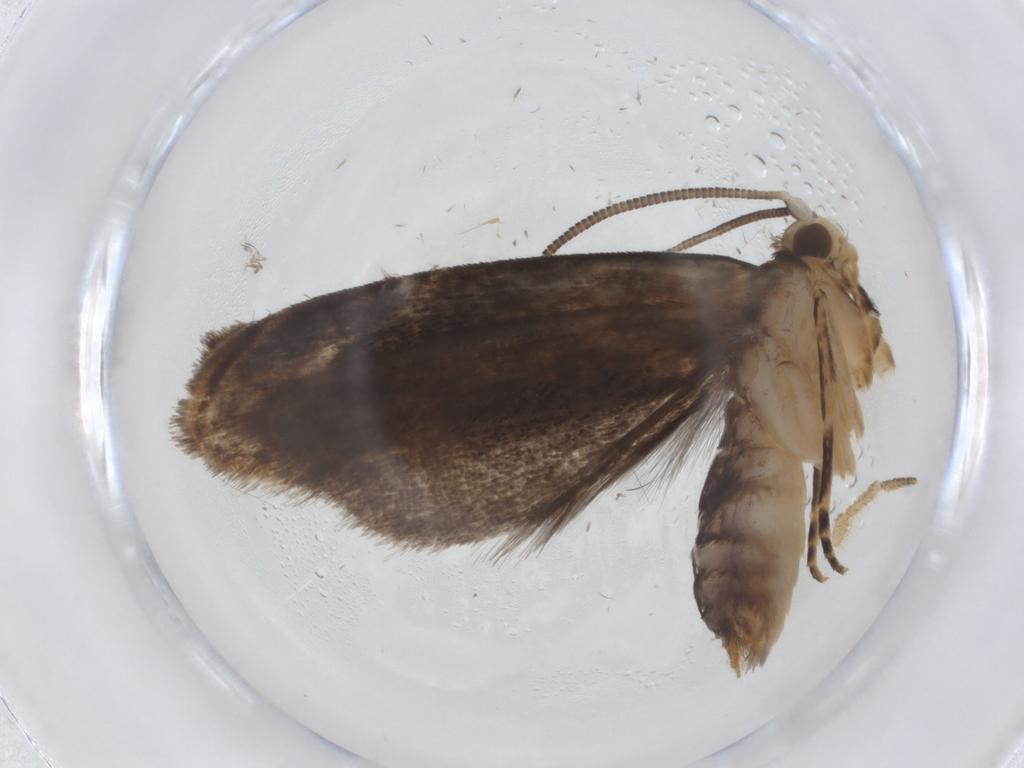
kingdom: Animalia
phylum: Arthropoda
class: Insecta
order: Lepidoptera
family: Dryadaulidae
